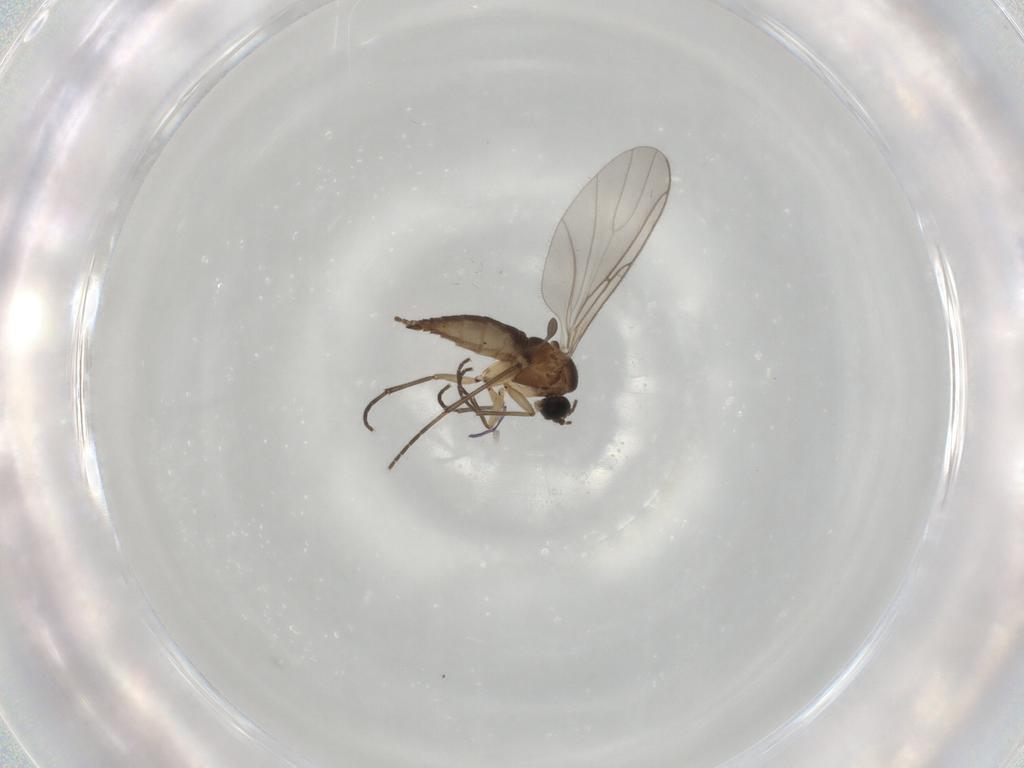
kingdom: Animalia
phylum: Arthropoda
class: Insecta
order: Diptera
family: Sciaridae
